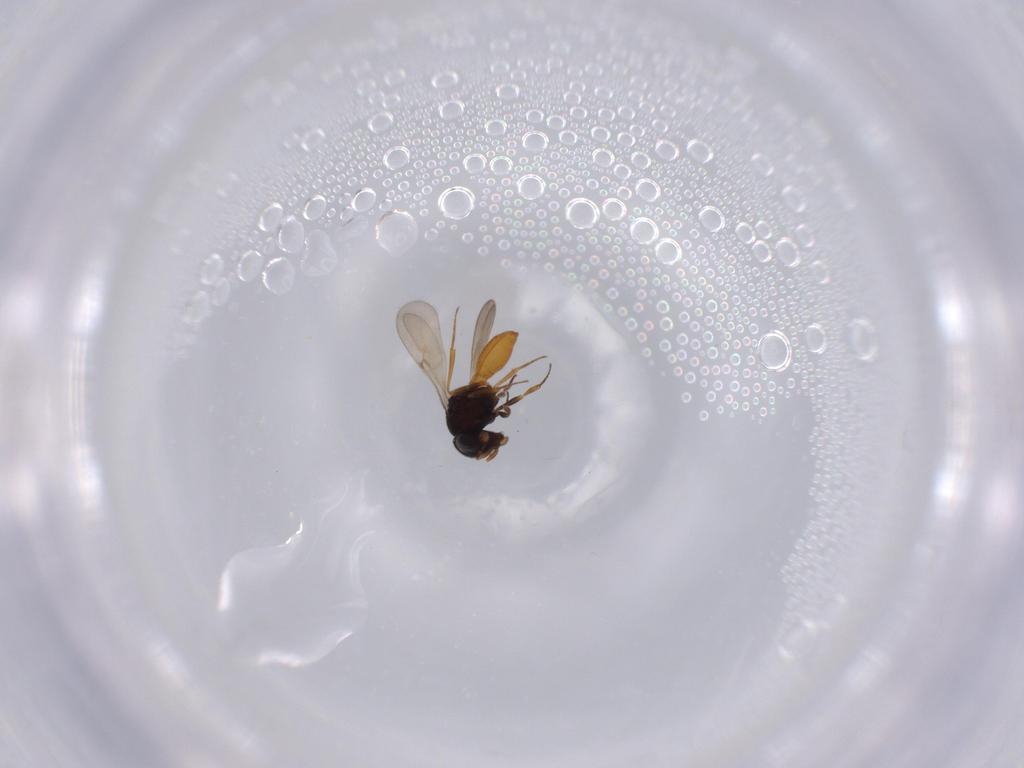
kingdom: Animalia
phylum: Arthropoda
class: Insecta
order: Hymenoptera
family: Scelionidae
